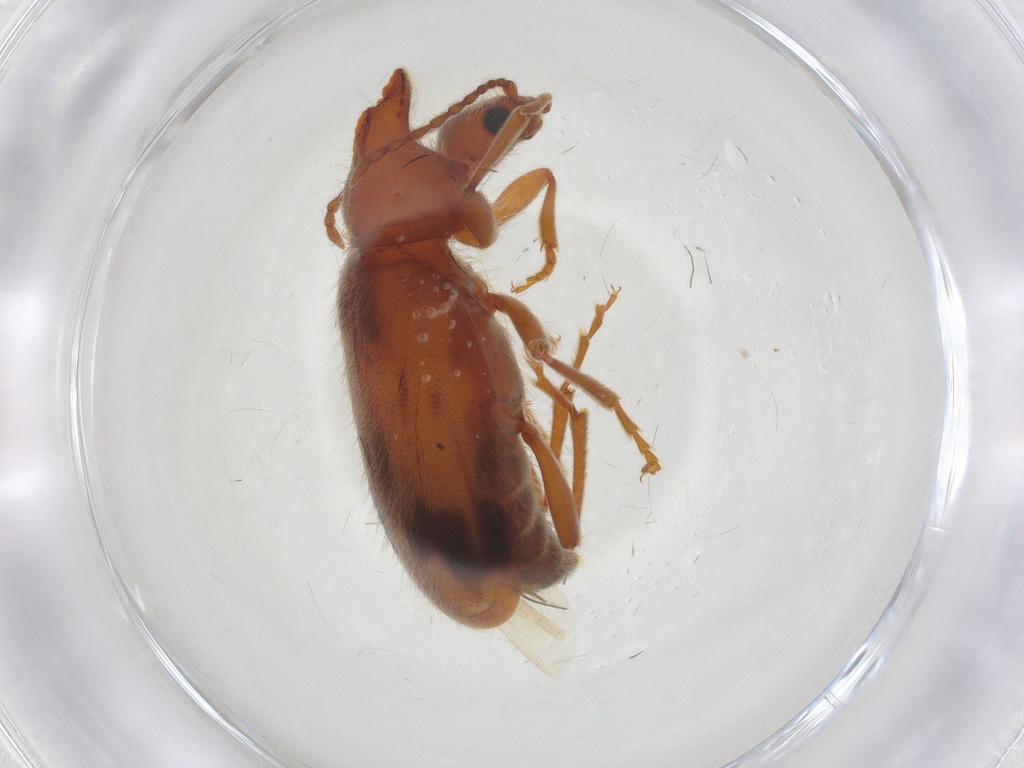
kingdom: Animalia
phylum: Arthropoda
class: Insecta
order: Coleoptera
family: Anthicidae
